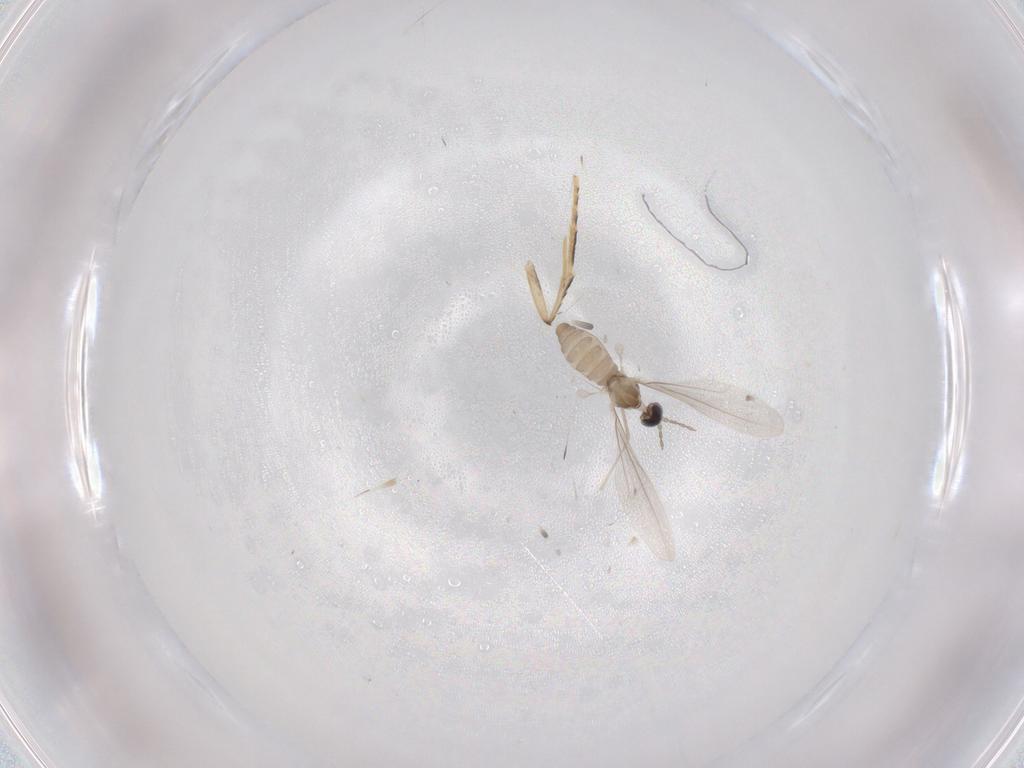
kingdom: Animalia
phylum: Arthropoda
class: Insecta
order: Diptera
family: Cecidomyiidae
